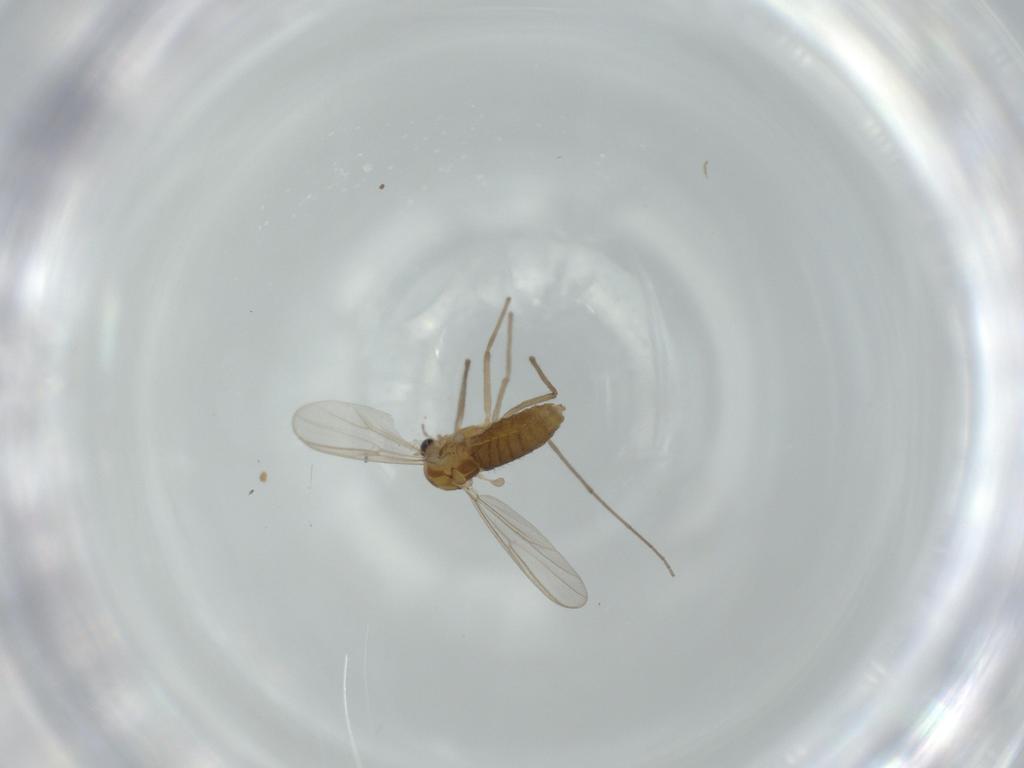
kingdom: Animalia
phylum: Arthropoda
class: Insecta
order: Diptera
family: Chironomidae
